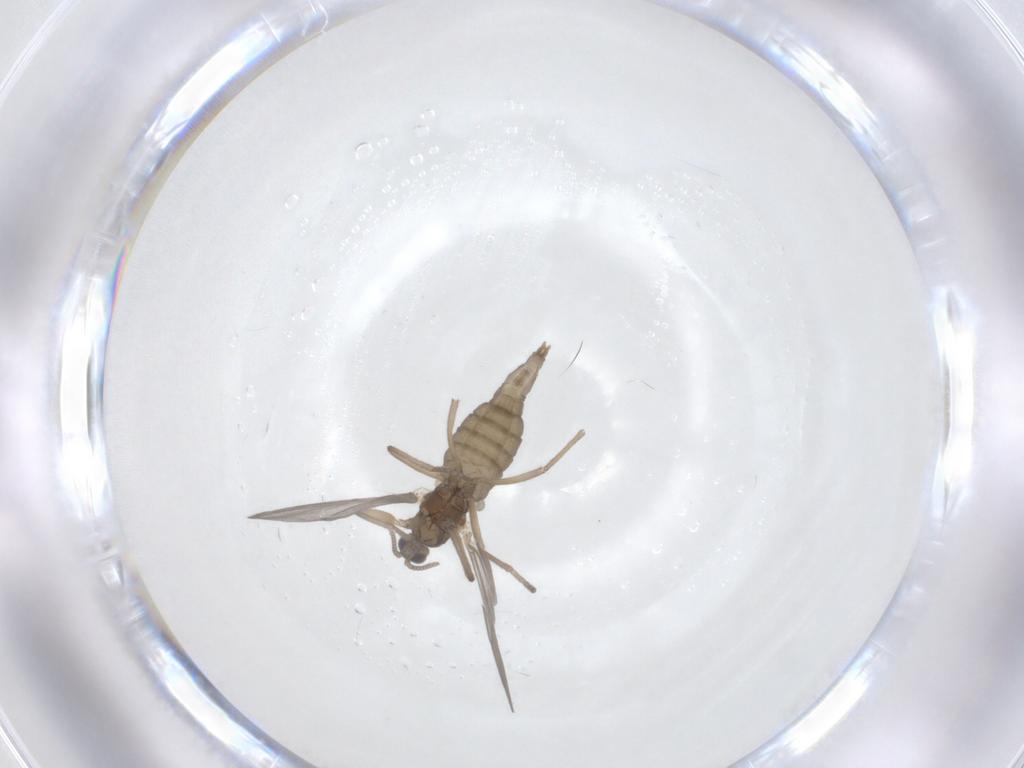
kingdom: Animalia
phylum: Arthropoda
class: Insecta
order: Diptera
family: Cecidomyiidae
